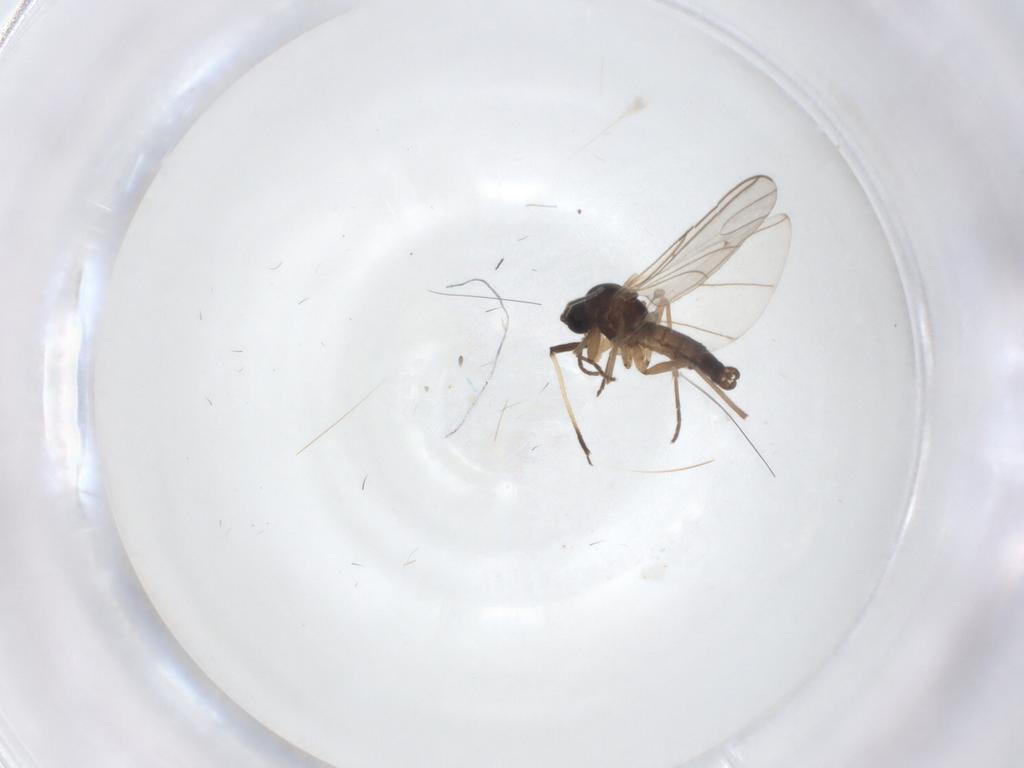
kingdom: Animalia
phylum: Arthropoda
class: Insecta
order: Diptera
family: Sciaridae
